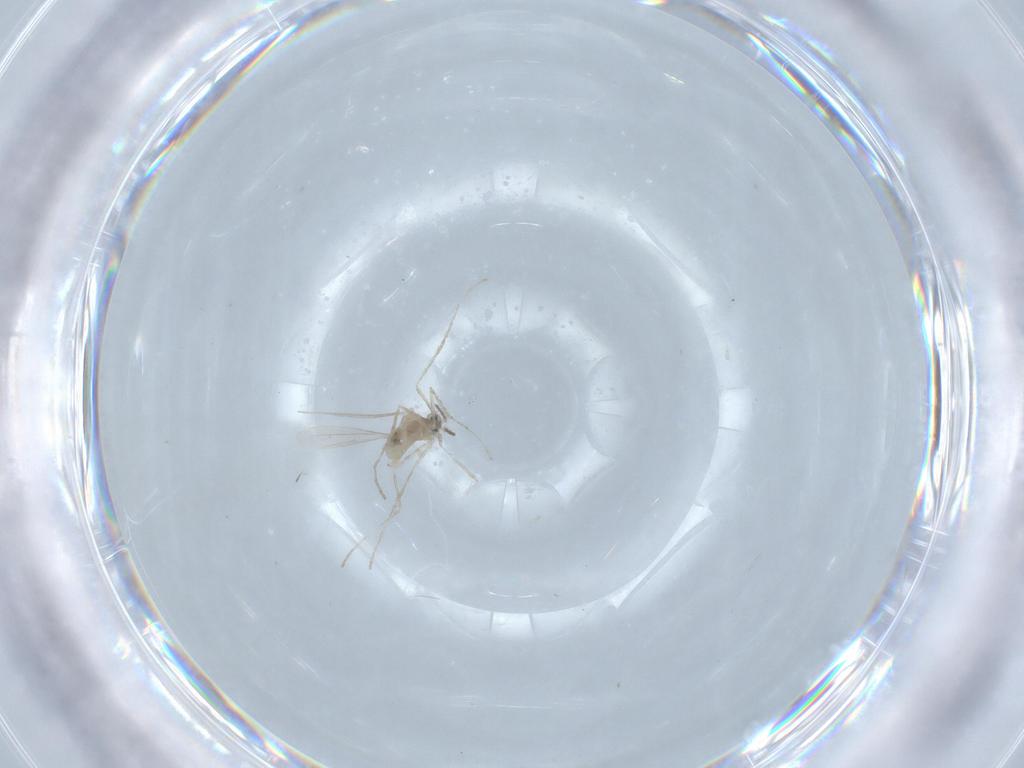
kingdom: Animalia
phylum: Arthropoda
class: Insecta
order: Diptera
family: Cecidomyiidae
